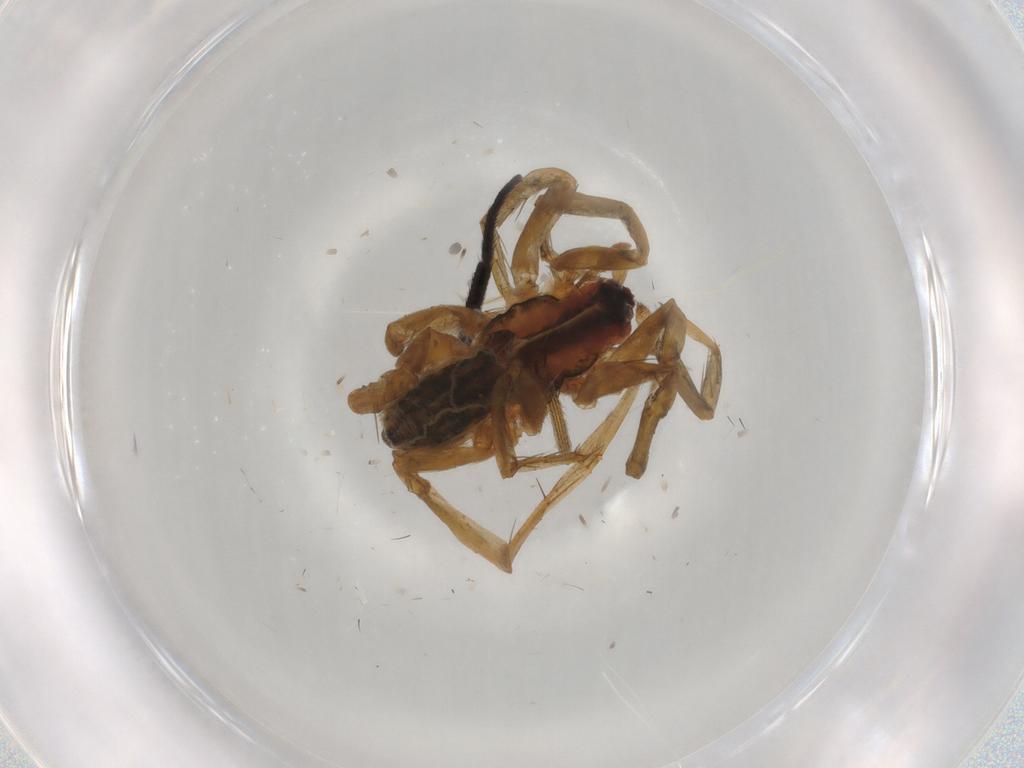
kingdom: Animalia
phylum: Arthropoda
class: Arachnida
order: Araneae
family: Lycosidae
